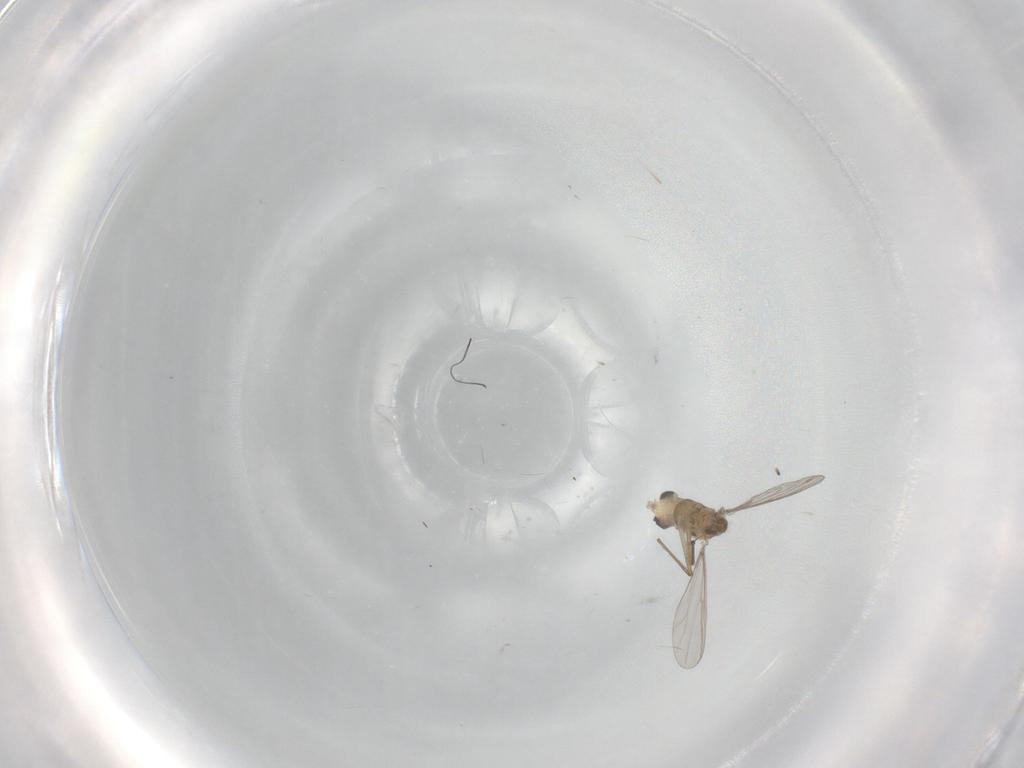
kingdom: Animalia
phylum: Arthropoda
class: Insecta
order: Diptera
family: Chironomidae
